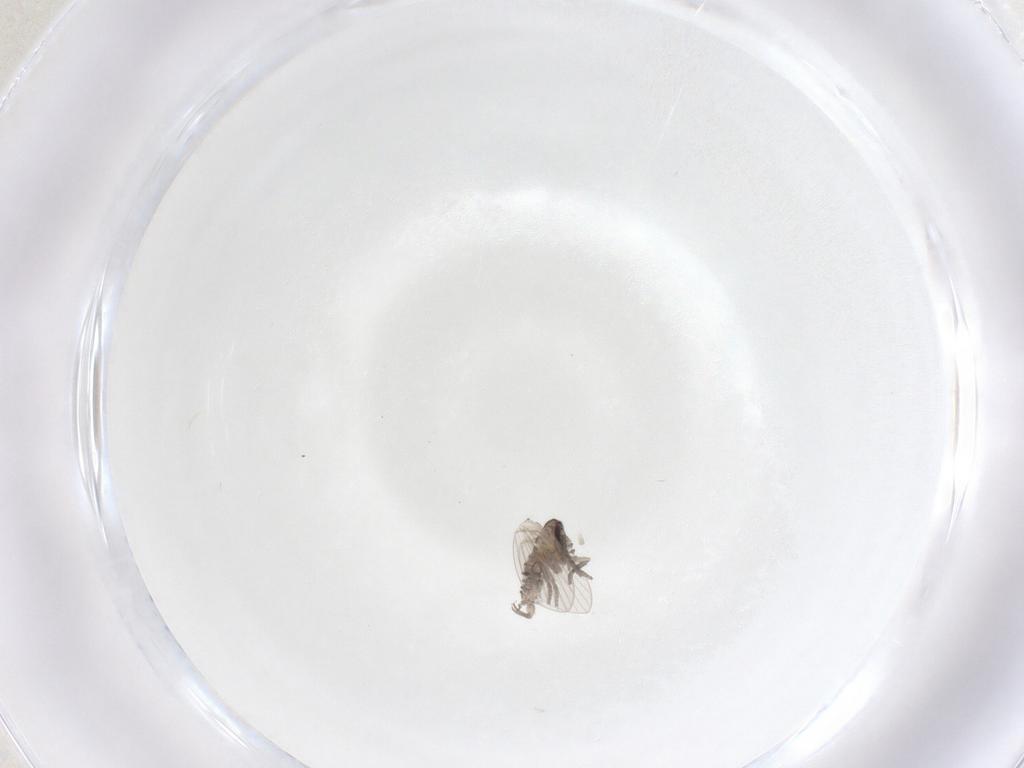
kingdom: Animalia
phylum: Arthropoda
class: Insecta
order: Diptera
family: Psychodidae
